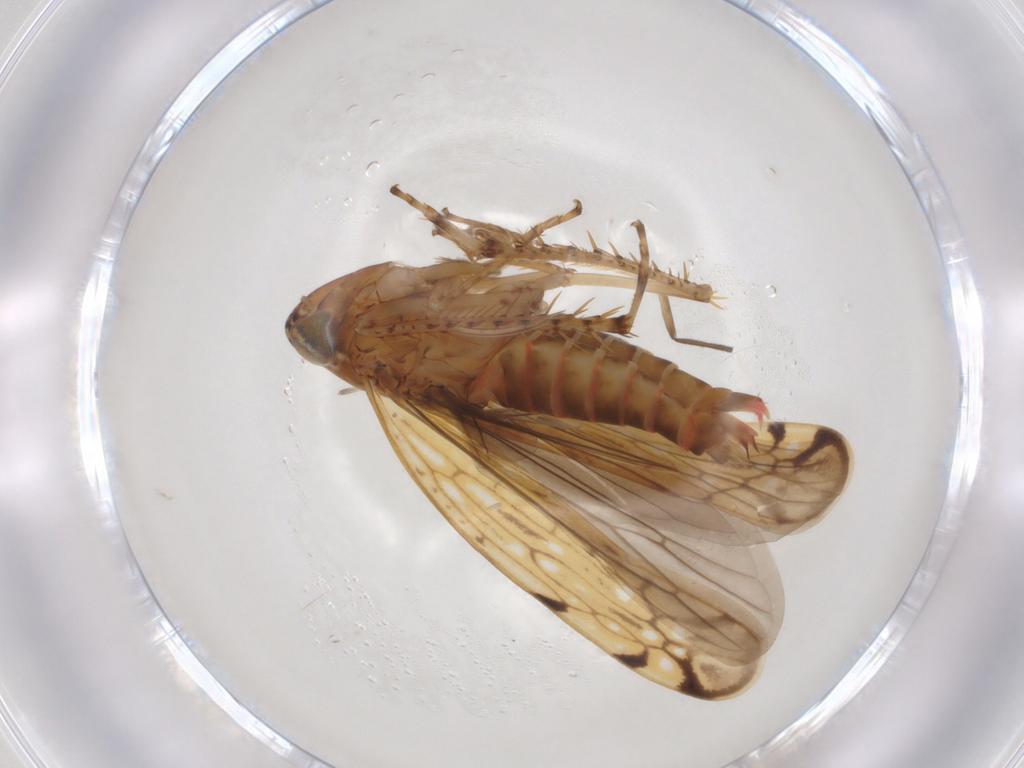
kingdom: Animalia
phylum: Arthropoda
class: Insecta
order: Hemiptera
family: Cicadellidae
